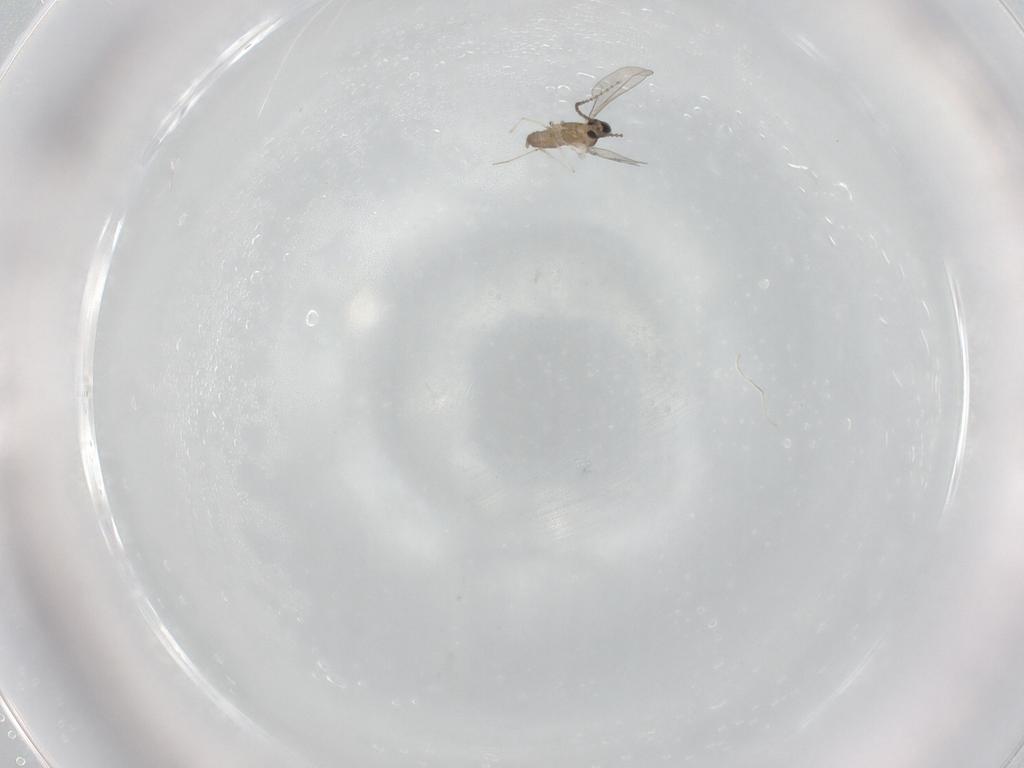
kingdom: Animalia
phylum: Arthropoda
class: Insecta
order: Diptera
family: Cecidomyiidae
